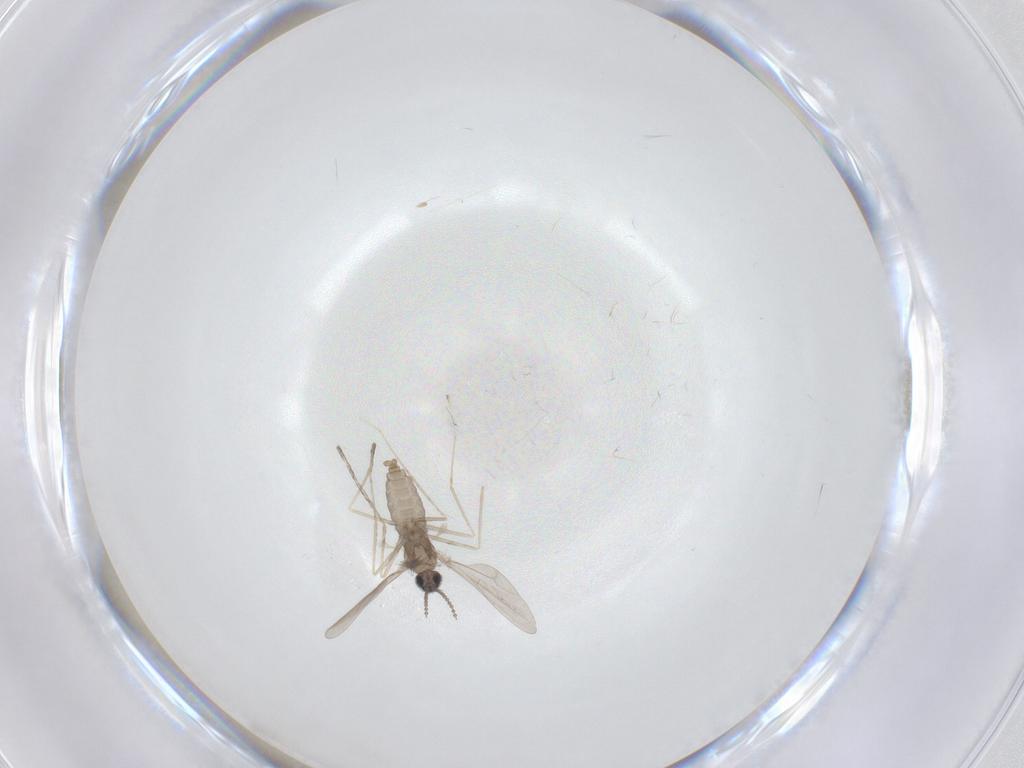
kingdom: Animalia
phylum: Arthropoda
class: Insecta
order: Diptera
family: Cecidomyiidae
